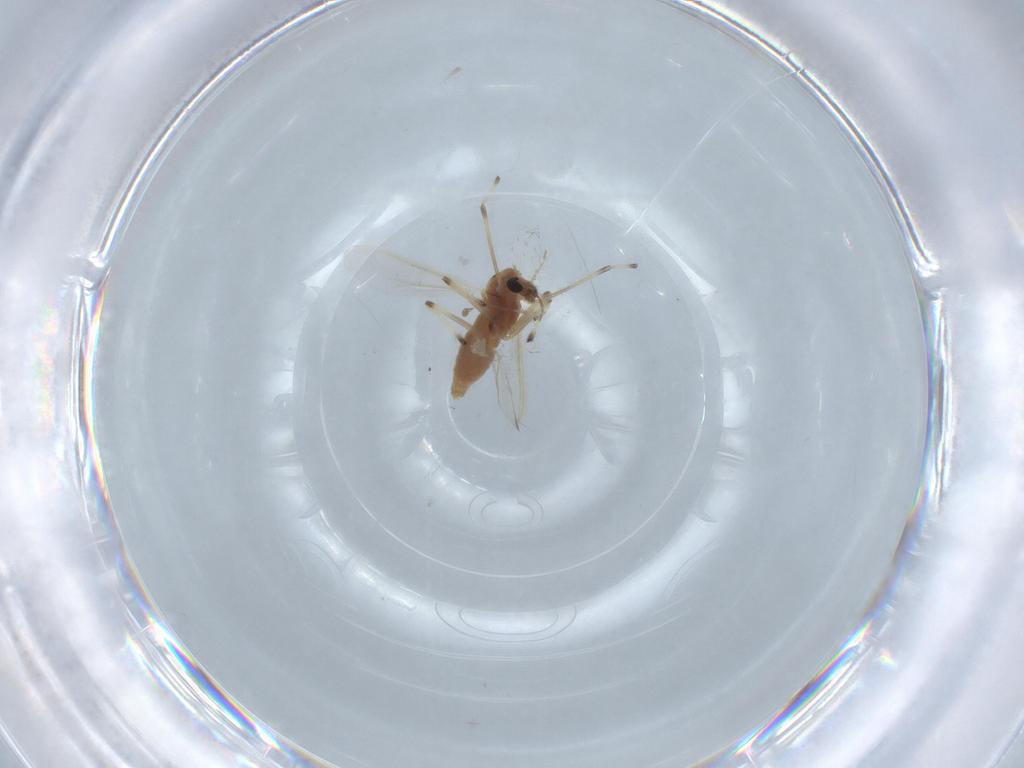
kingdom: Animalia
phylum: Arthropoda
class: Insecta
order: Diptera
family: Chironomidae
